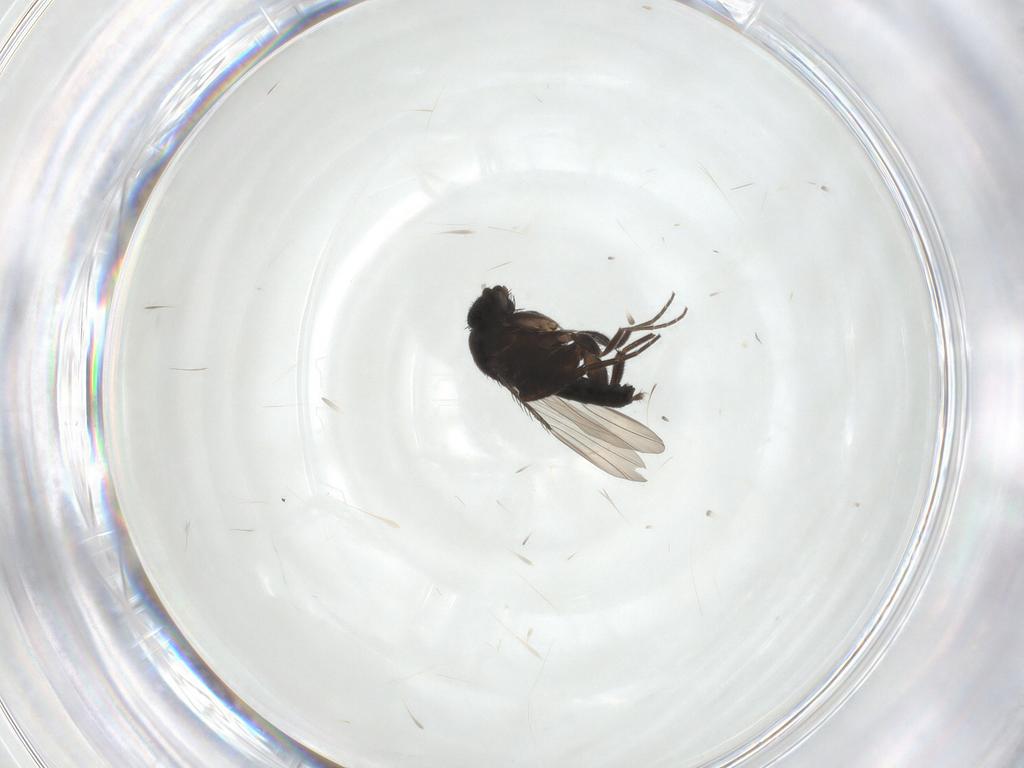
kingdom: Animalia
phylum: Arthropoda
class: Insecta
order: Diptera
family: Phoridae
